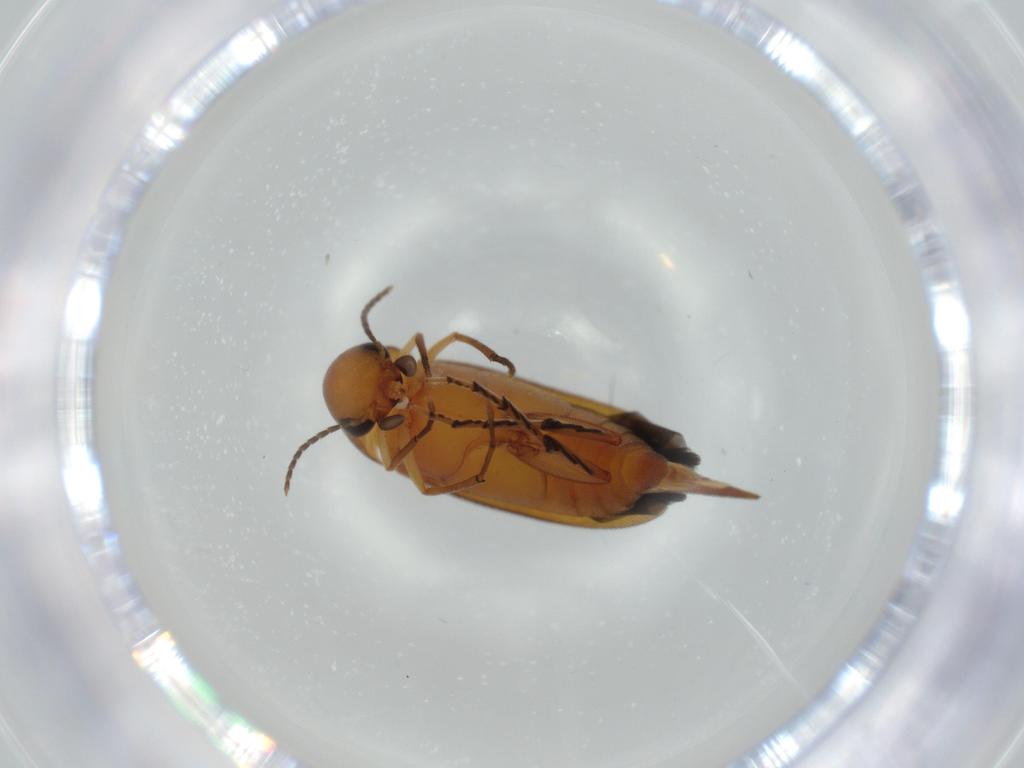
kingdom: Animalia
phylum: Arthropoda
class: Insecta
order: Coleoptera
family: Mordellidae
